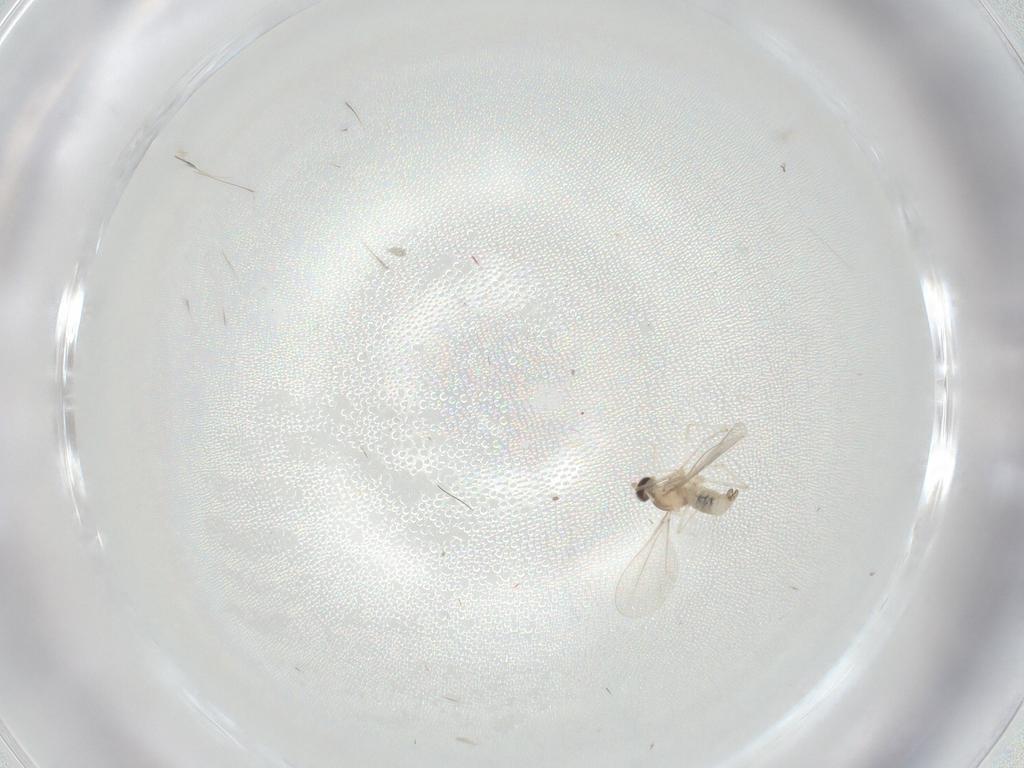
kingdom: Animalia
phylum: Arthropoda
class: Insecta
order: Diptera
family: Cecidomyiidae
